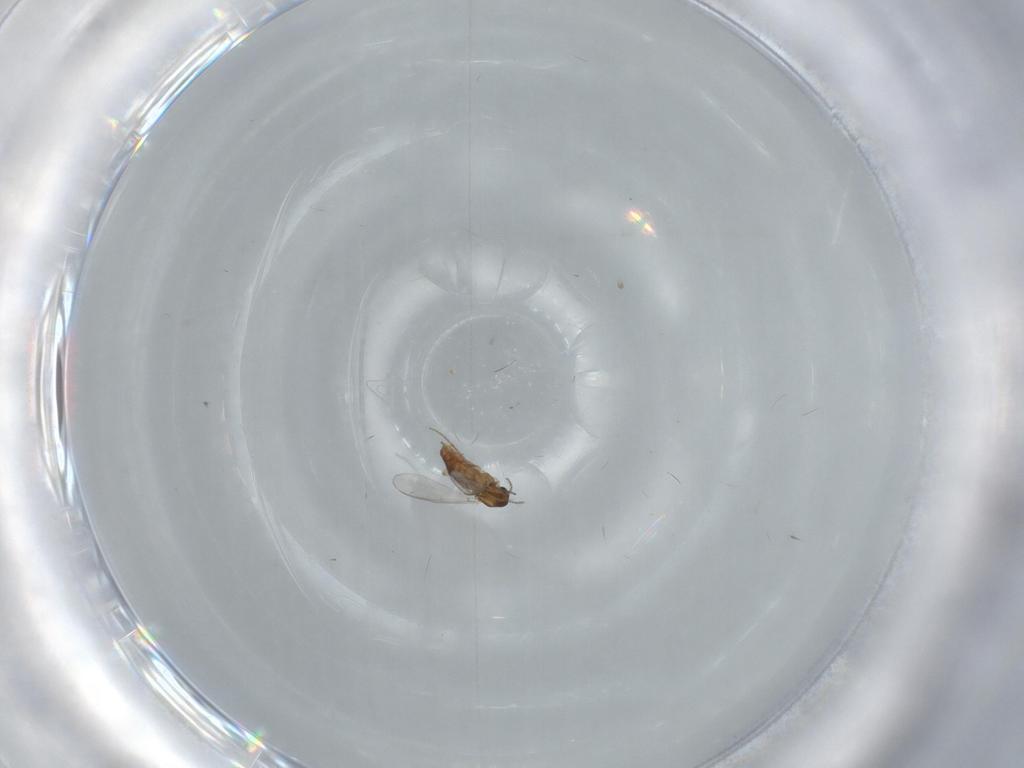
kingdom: Animalia
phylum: Arthropoda
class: Insecta
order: Diptera
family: Chironomidae
